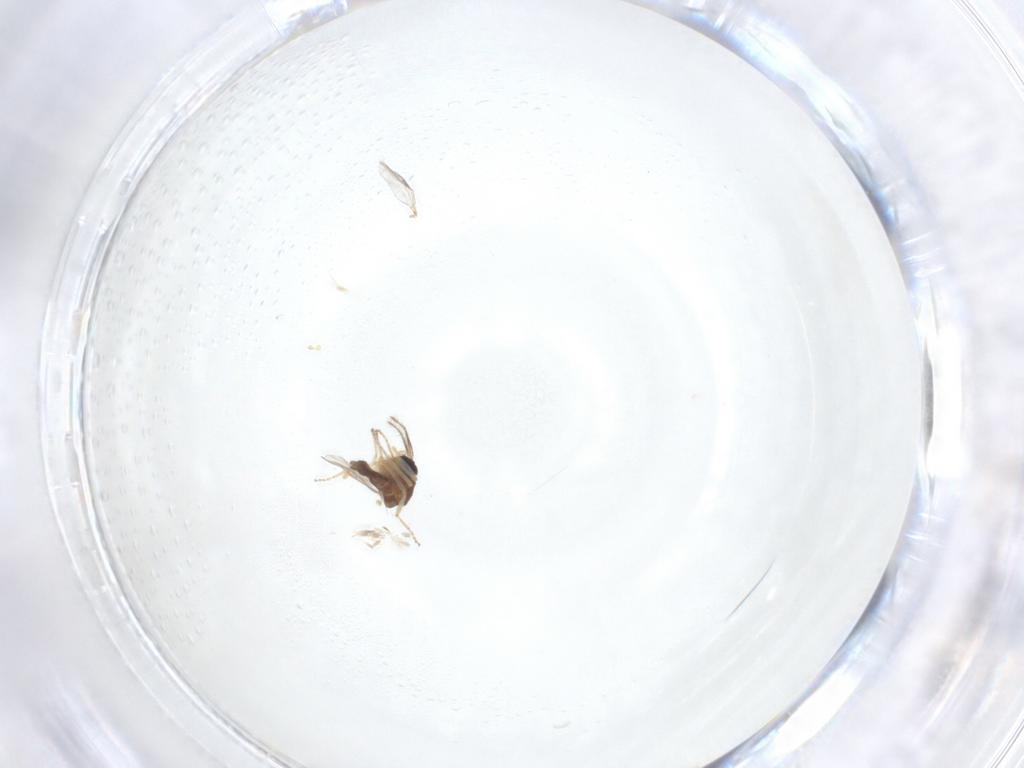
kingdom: Animalia
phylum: Arthropoda
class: Insecta
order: Diptera
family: Ceratopogonidae
